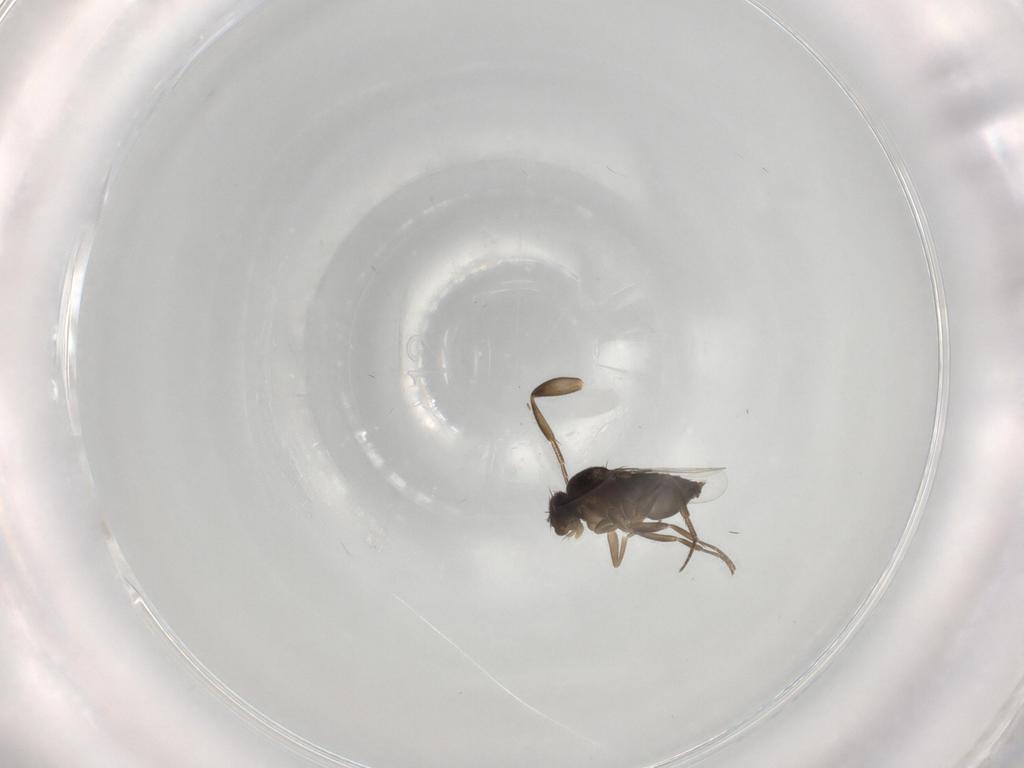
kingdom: Animalia
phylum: Arthropoda
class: Insecta
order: Diptera
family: Phoridae
